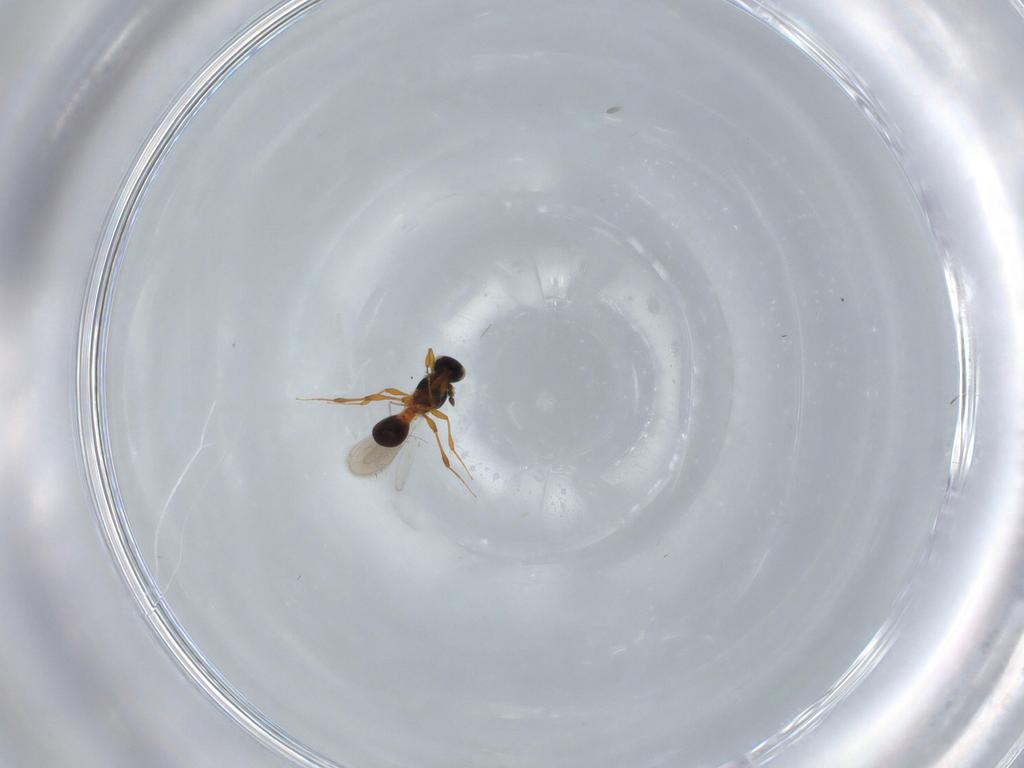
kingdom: Animalia
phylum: Arthropoda
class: Insecta
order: Hymenoptera
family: Platygastridae
